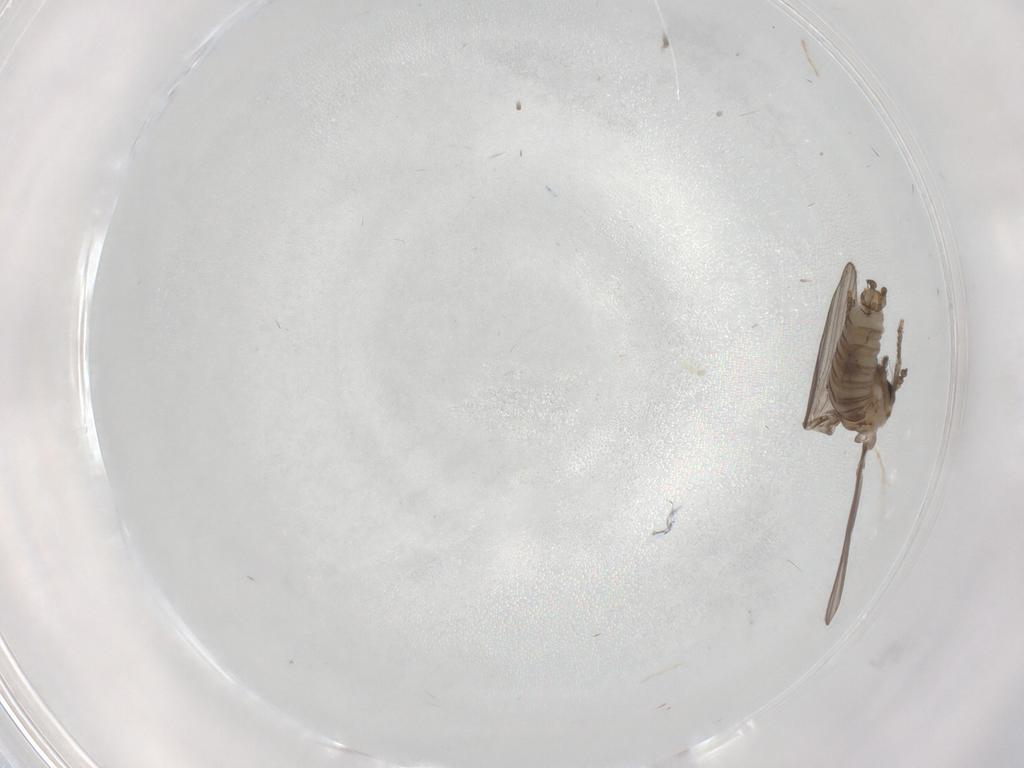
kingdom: Animalia
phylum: Arthropoda
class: Insecta
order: Diptera
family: Psychodidae
